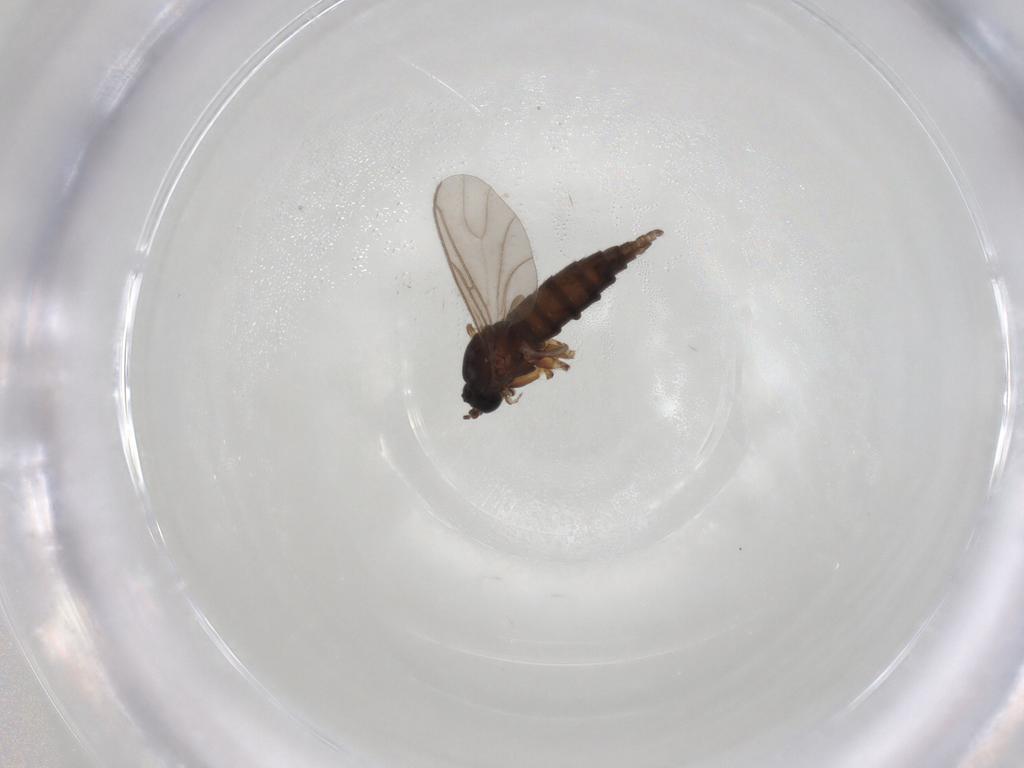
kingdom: Animalia
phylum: Arthropoda
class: Insecta
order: Diptera
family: Sciaridae
